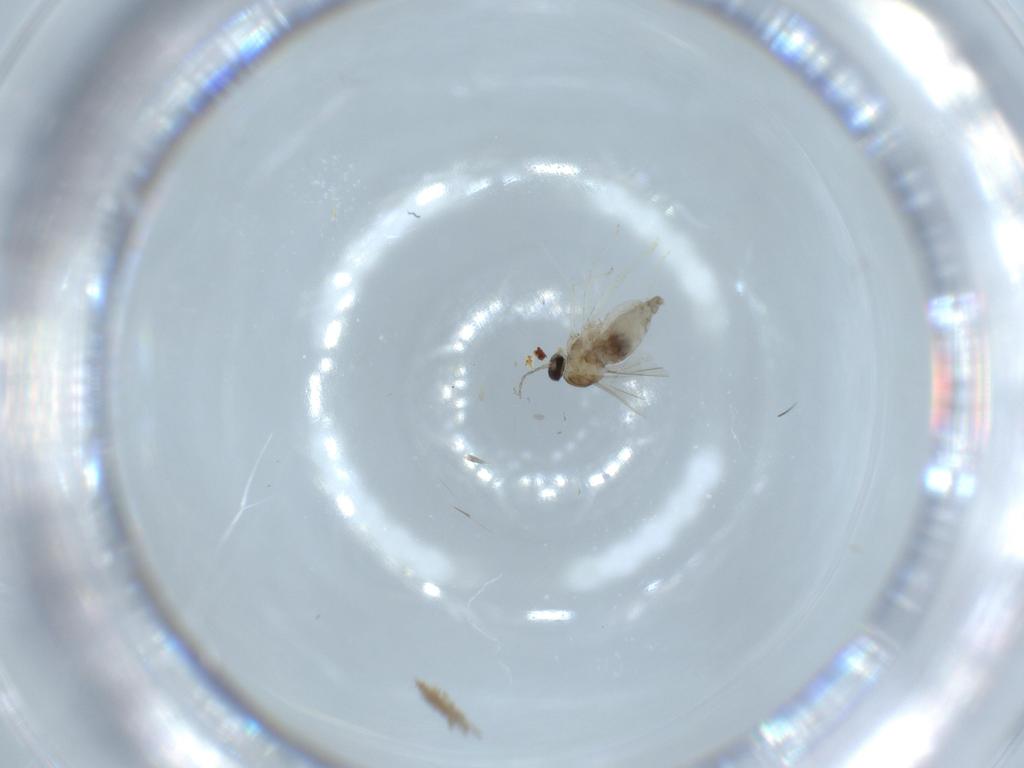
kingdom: Animalia
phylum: Arthropoda
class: Insecta
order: Diptera
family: Cecidomyiidae
